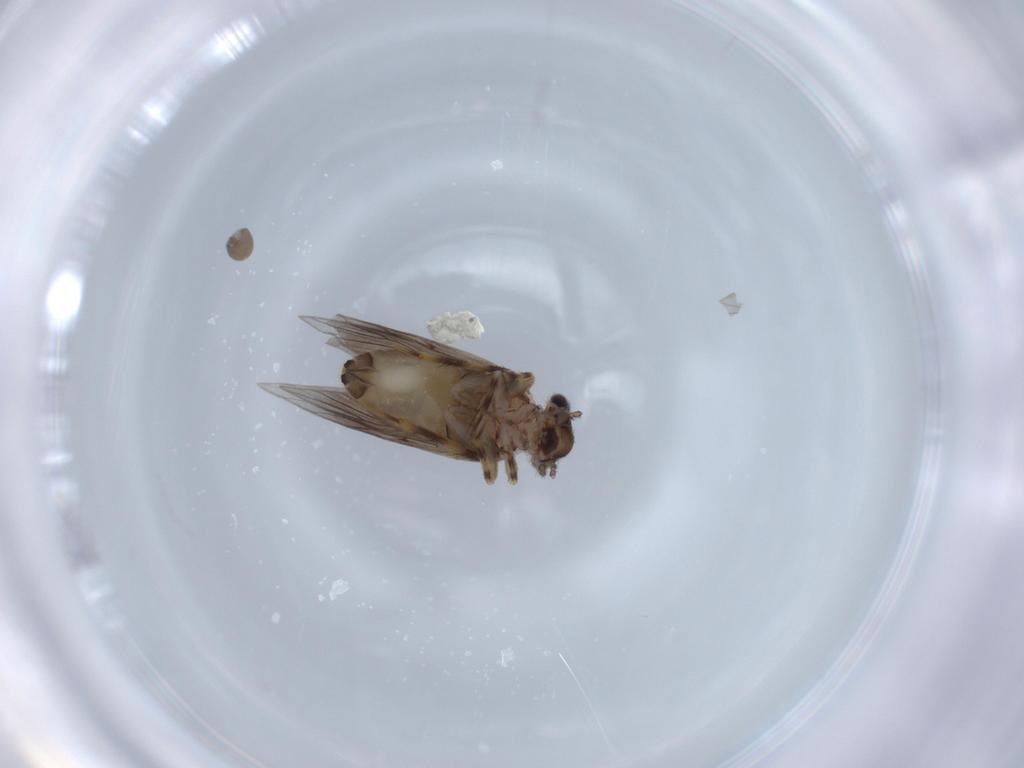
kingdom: Animalia
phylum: Arthropoda
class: Insecta
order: Psocodea
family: Lepidopsocidae
